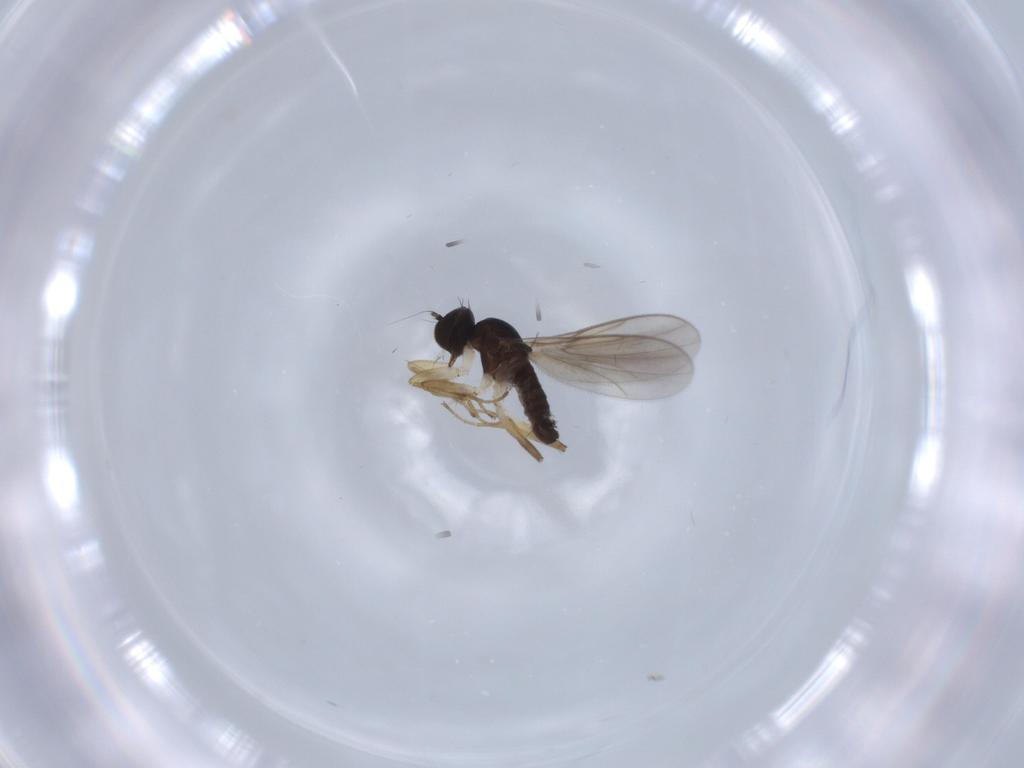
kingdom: Animalia
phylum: Arthropoda
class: Insecta
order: Diptera
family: Hybotidae
